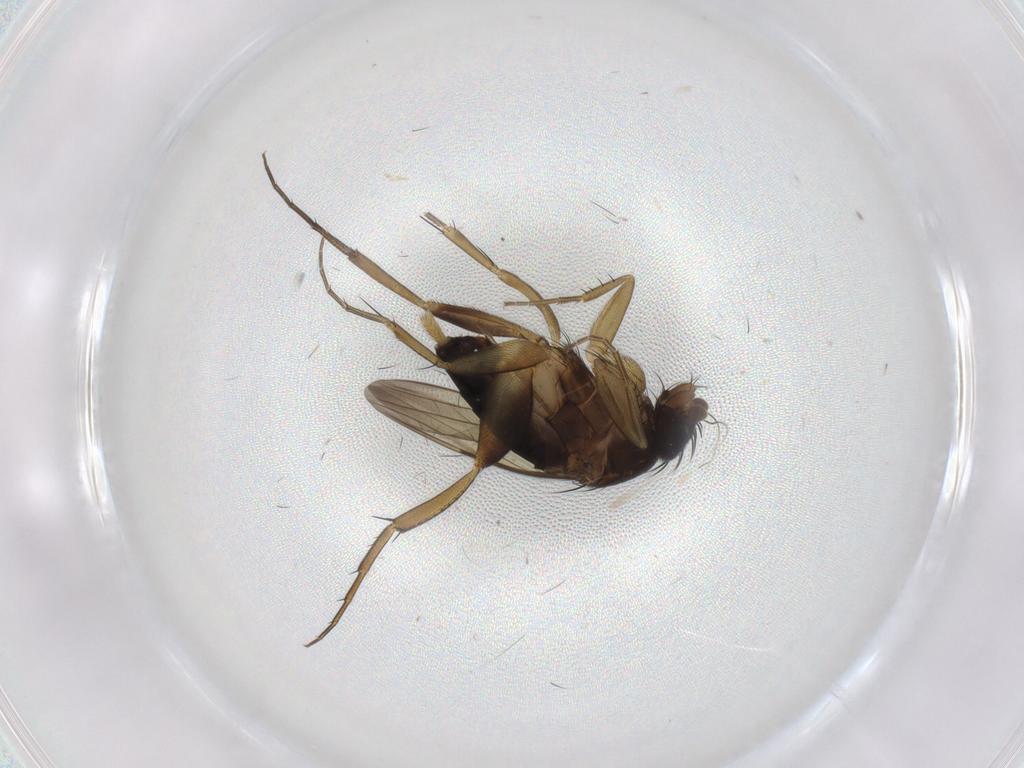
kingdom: Animalia
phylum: Arthropoda
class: Insecta
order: Diptera
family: Phoridae
